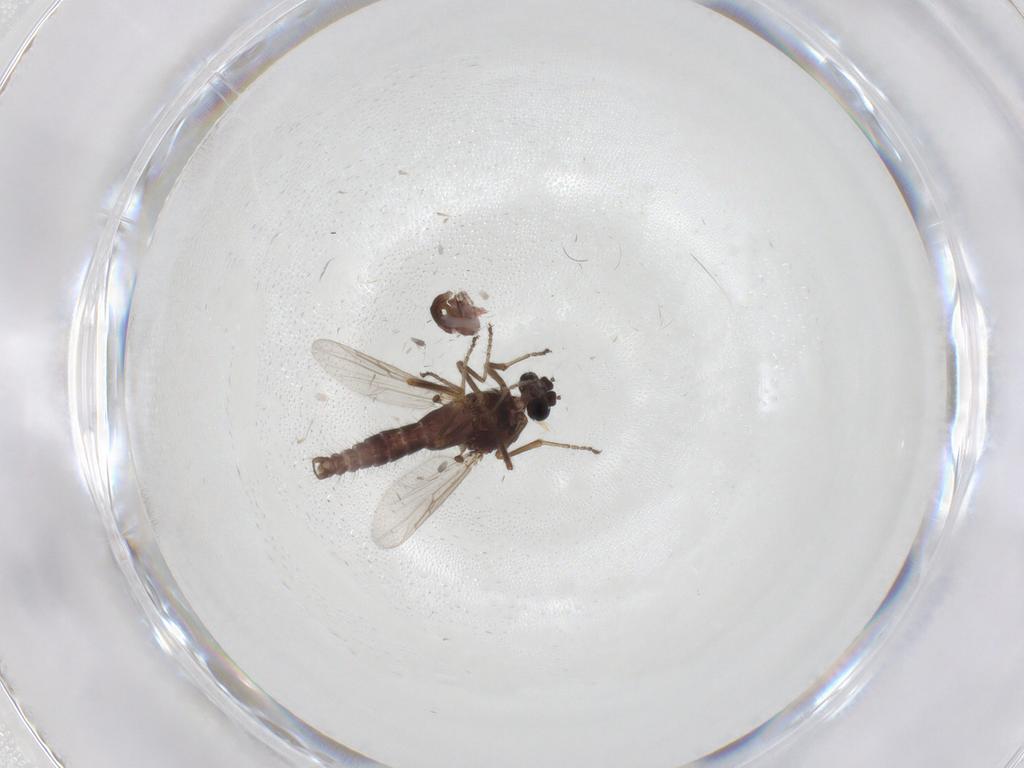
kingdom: Animalia
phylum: Arthropoda
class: Insecta
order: Diptera
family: Ceratopogonidae
